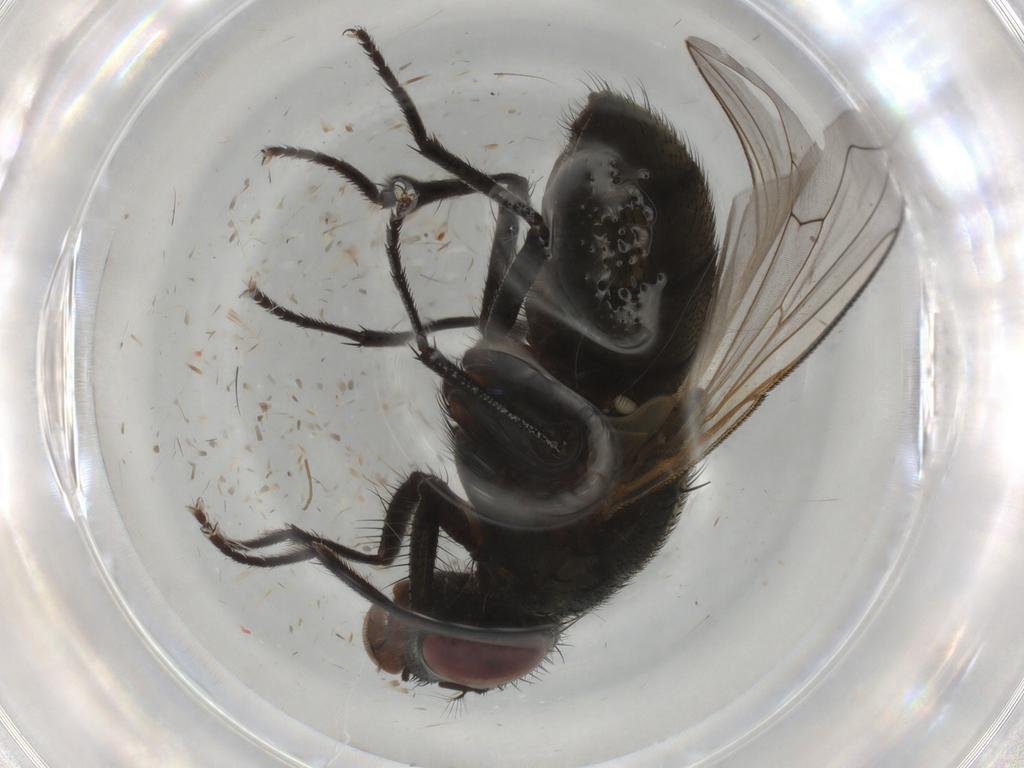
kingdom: Animalia
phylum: Arthropoda
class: Insecta
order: Diptera
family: Muscidae
